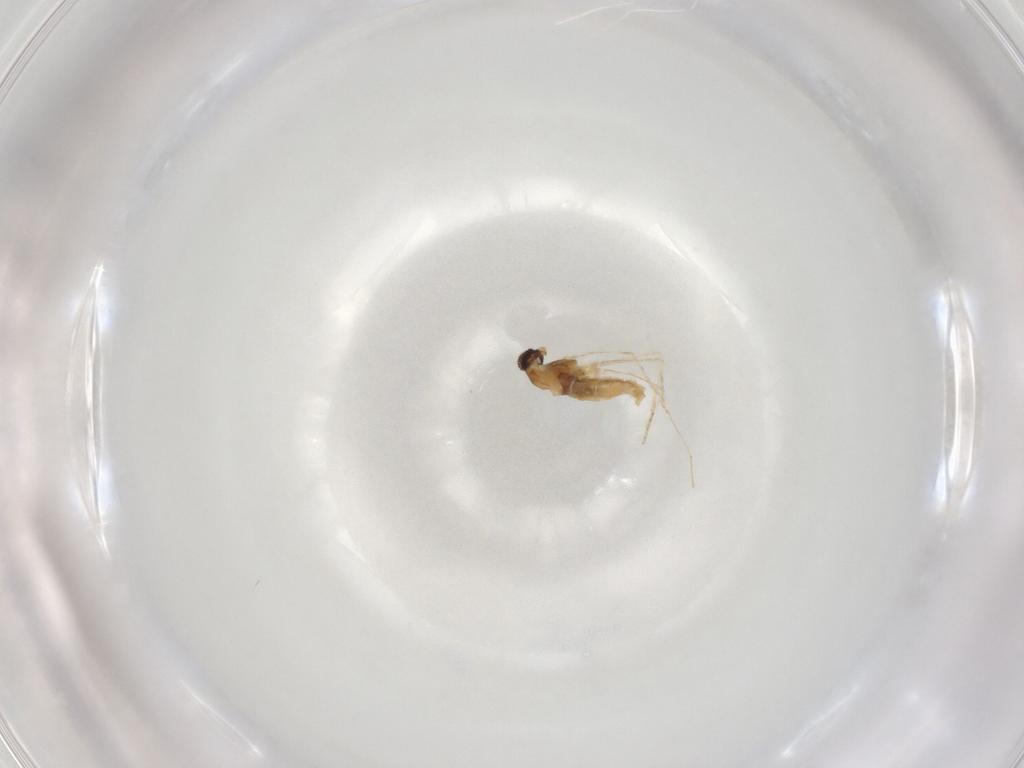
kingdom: Animalia
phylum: Arthropoda
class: Insecta
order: Diptera
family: Cecidomyiidae
